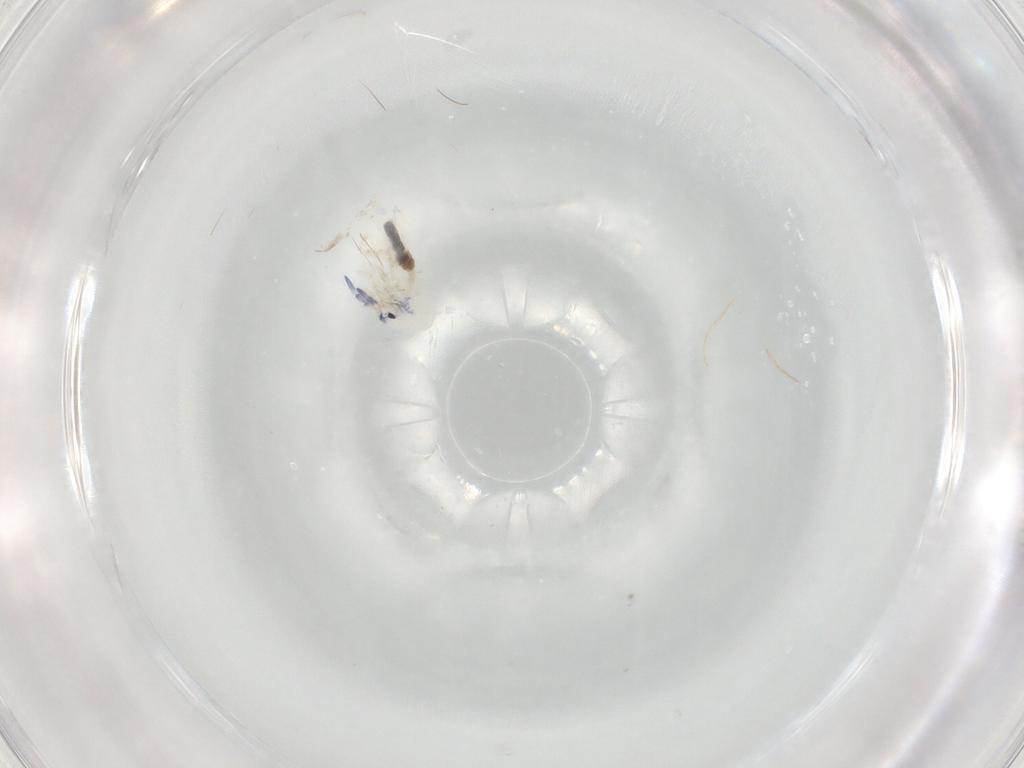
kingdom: Animalia
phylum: Arthropoda
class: Collembola
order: Entomobryomorpha
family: Entomobryidae
